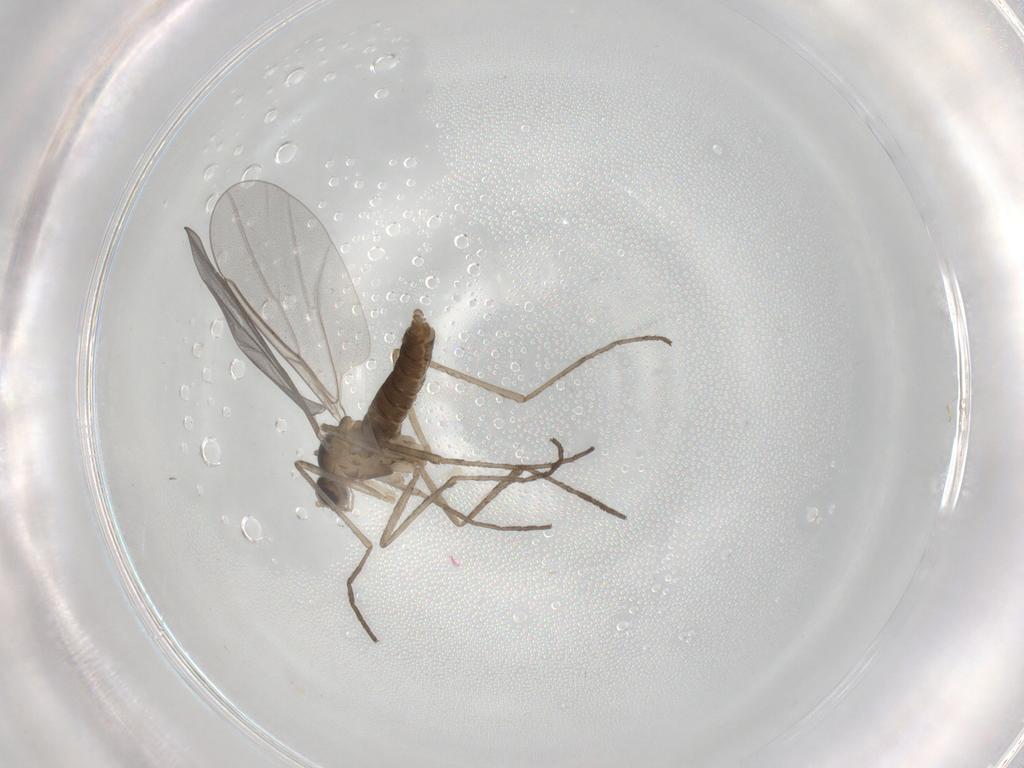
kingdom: Animalia
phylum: Arthropoda
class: Insecta
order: Diptera
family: Cecidomyiidae
